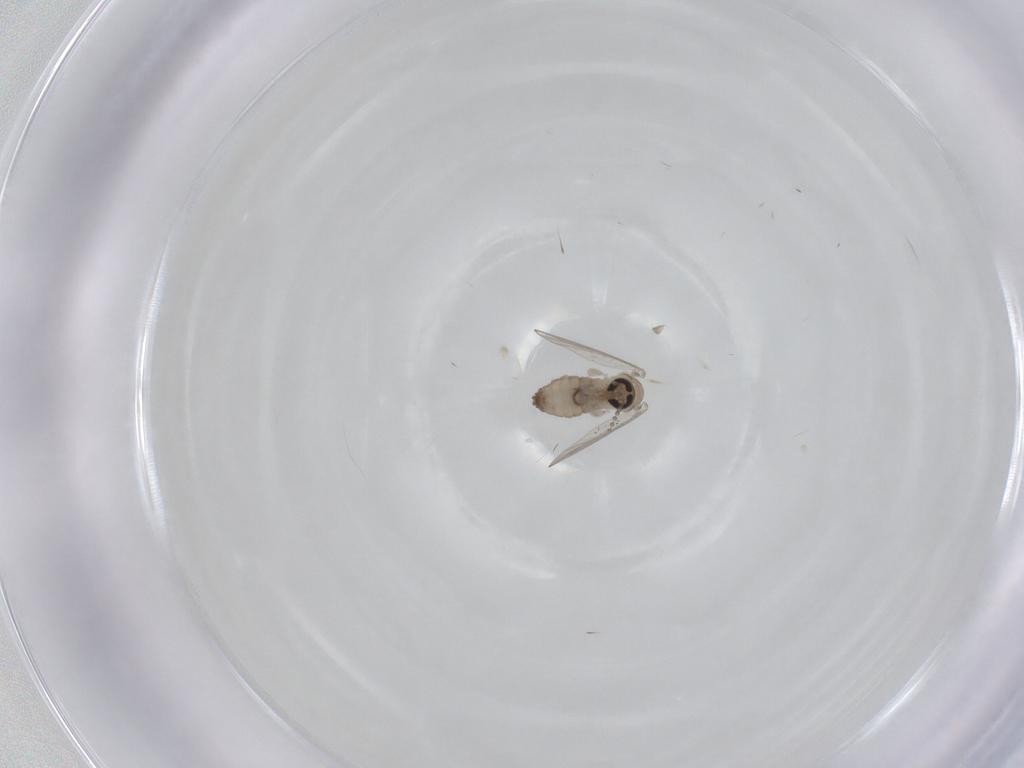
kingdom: Animalia
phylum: Arthropoda
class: Insecta
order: Diptera
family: Psychodidae
